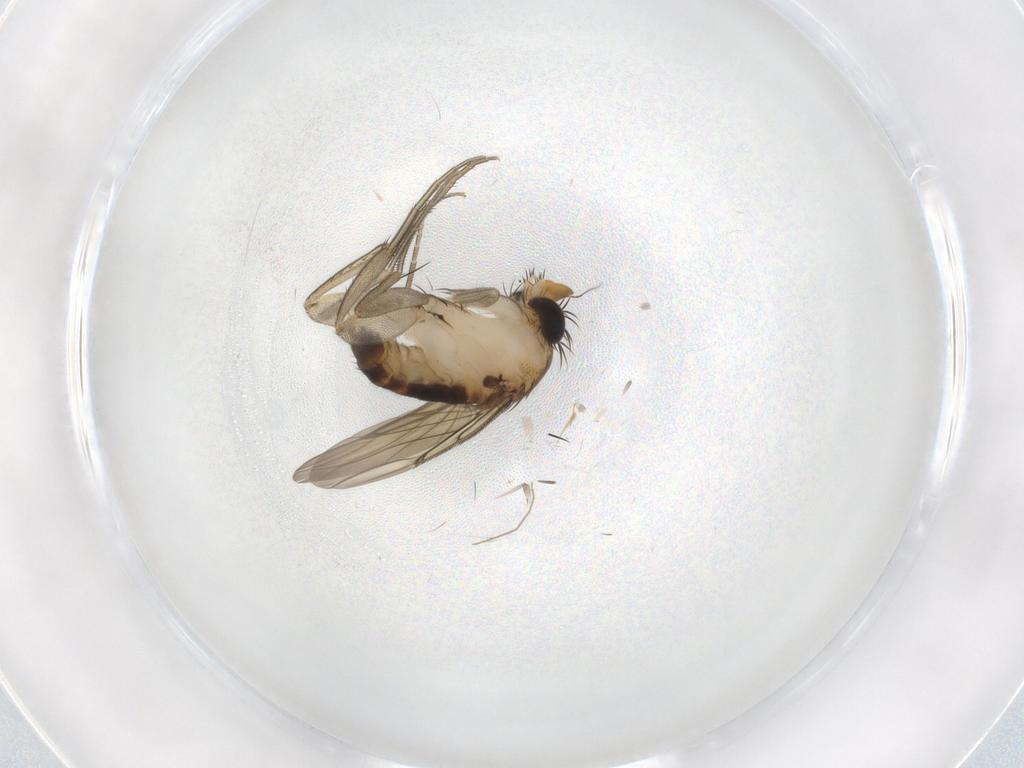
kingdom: Animalia
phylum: Arthropoda
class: Insecta
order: Diptera
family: Phoridae
